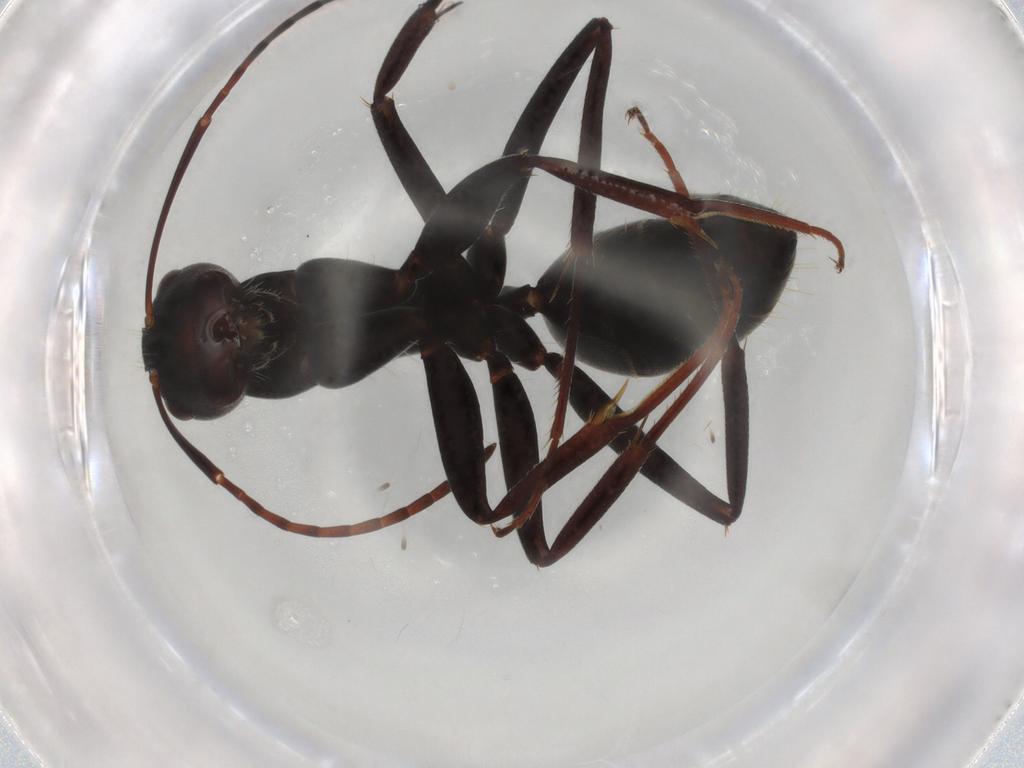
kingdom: Animalia
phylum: Arthropoda
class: Insecta
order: Hymenoptera
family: Formicidae
